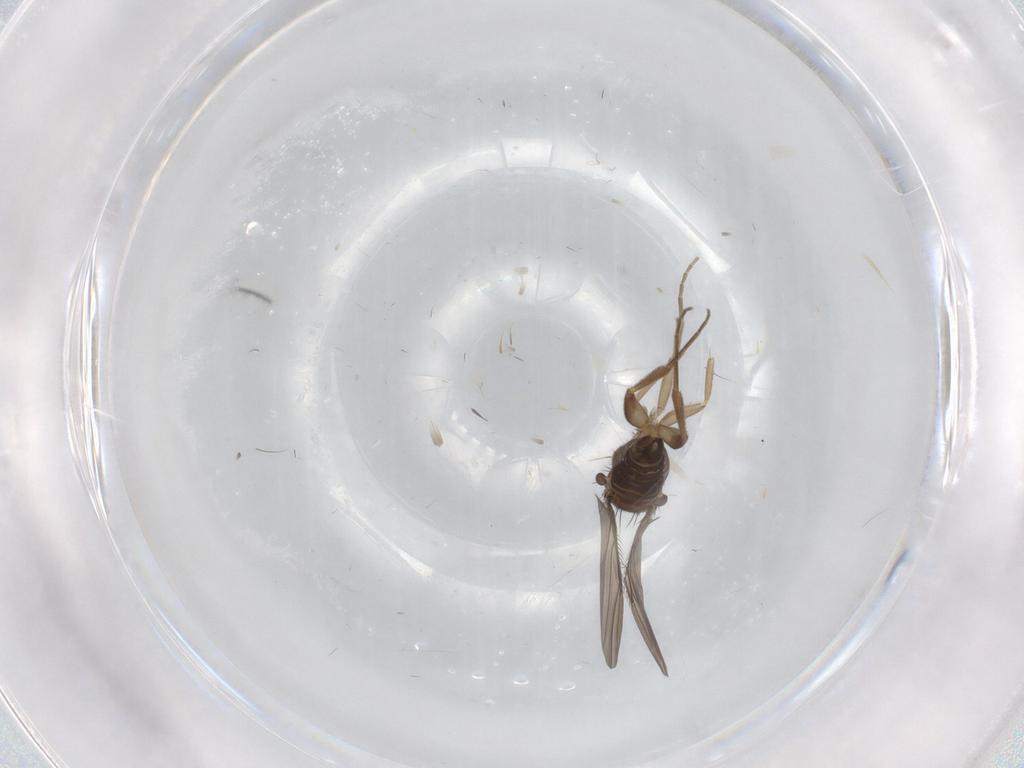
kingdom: Animalia
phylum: Arthropoda
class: Insecta
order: Diptera
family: Phoridae
